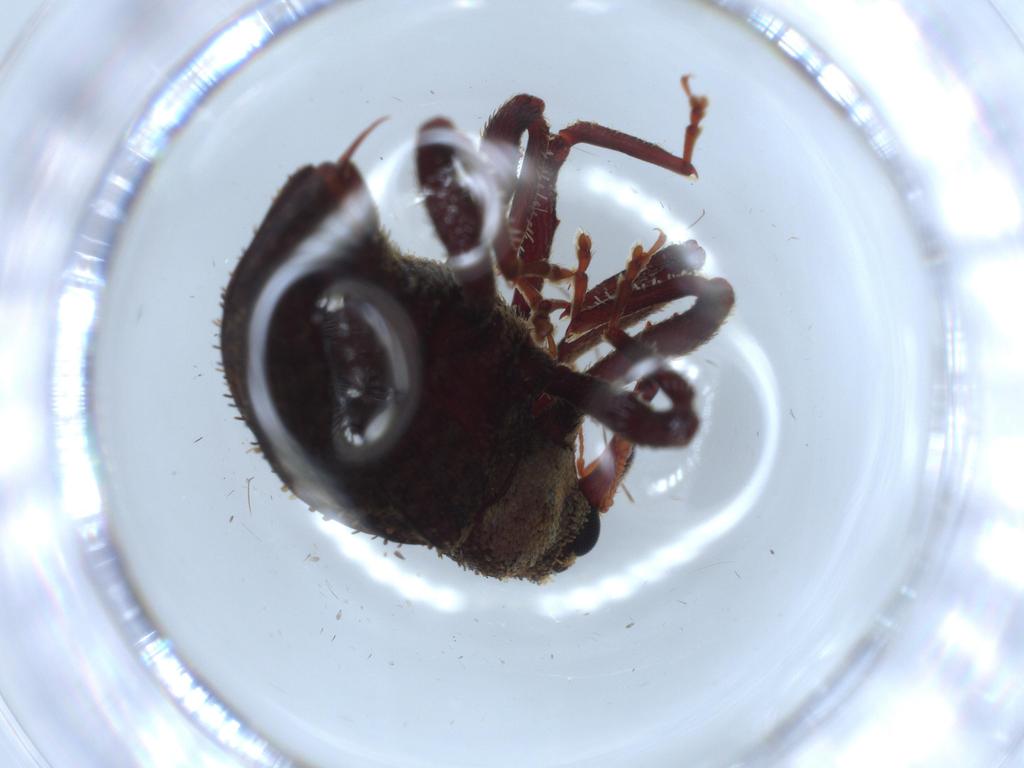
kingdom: Animalia
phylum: Arthropoda
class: Insecta
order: Coleoptera
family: Curculionidae
